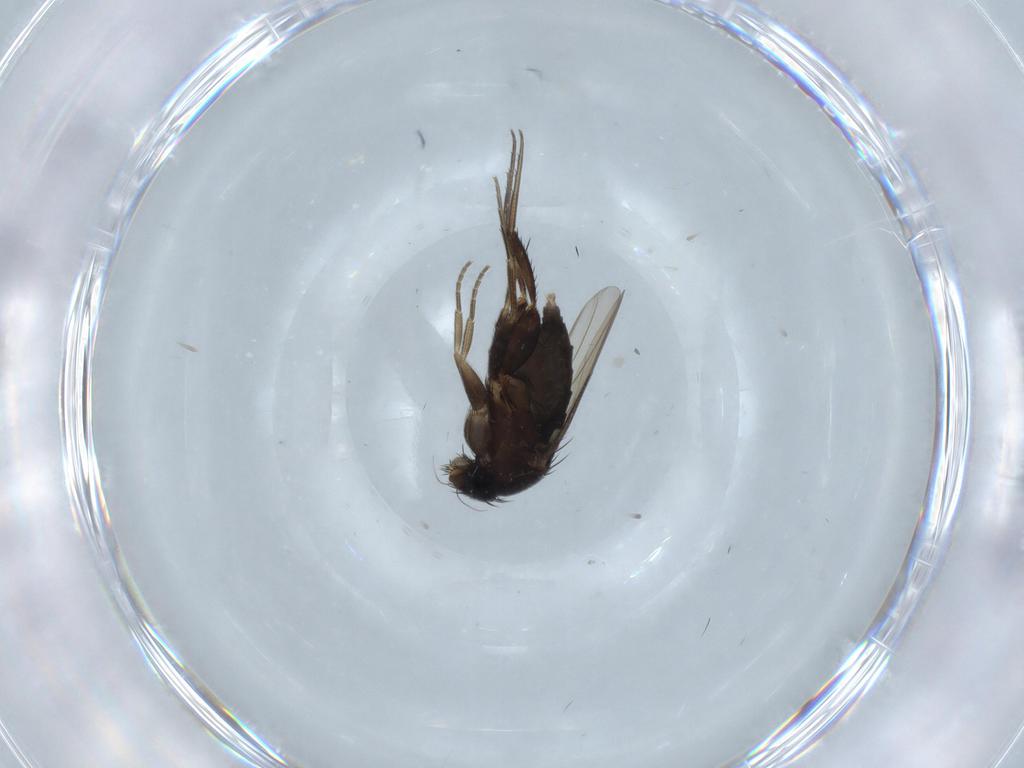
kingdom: Animalia
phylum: Arthropoda
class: Insecta
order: Diptera
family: Phoridae
